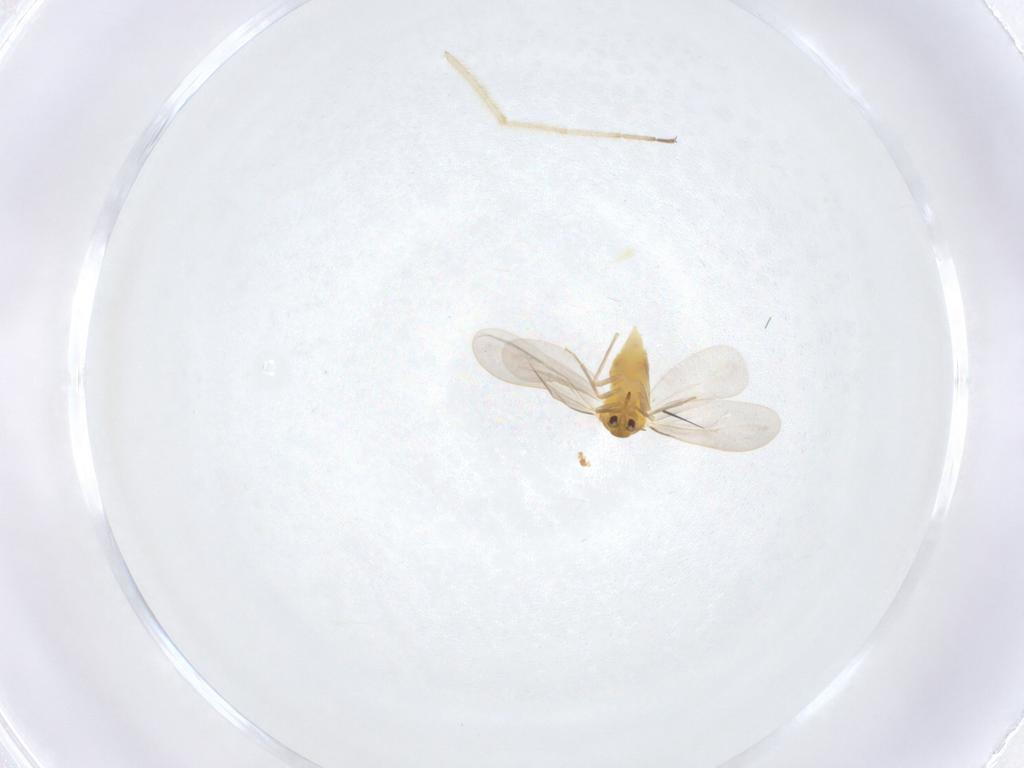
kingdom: Animalia
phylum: Arthropoda
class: Insecta
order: Hemiptera
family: Aleyrodidae
